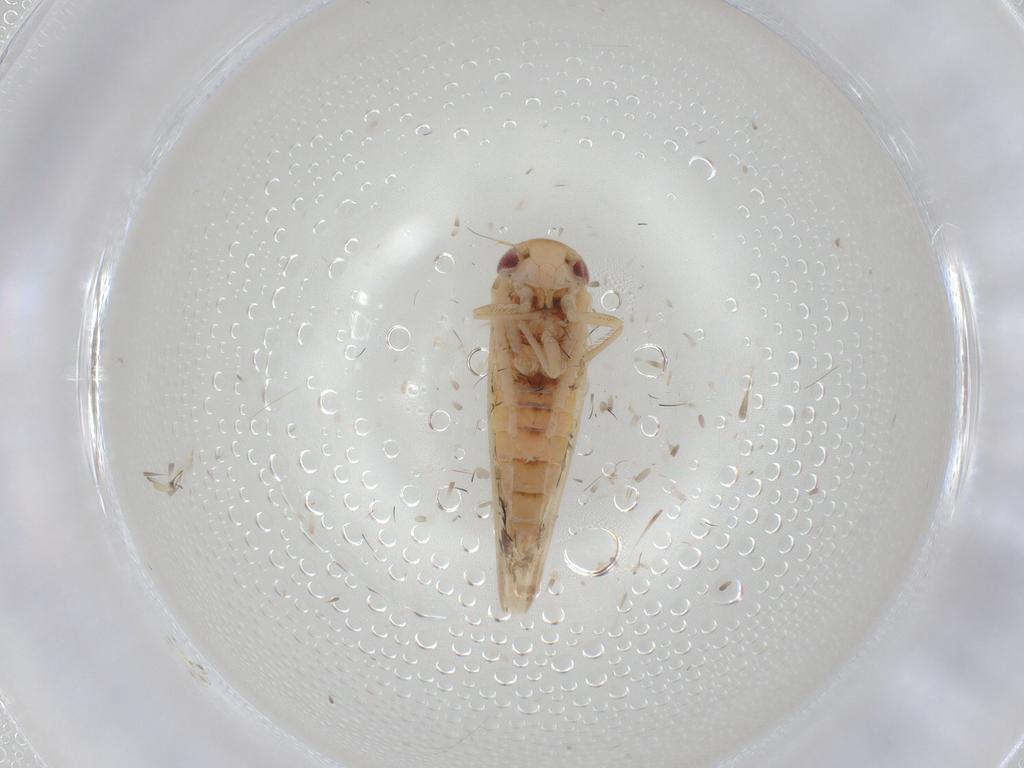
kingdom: Animalia
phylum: Arthropoda
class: Insecta
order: Hemiptera
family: Cicadellidae
